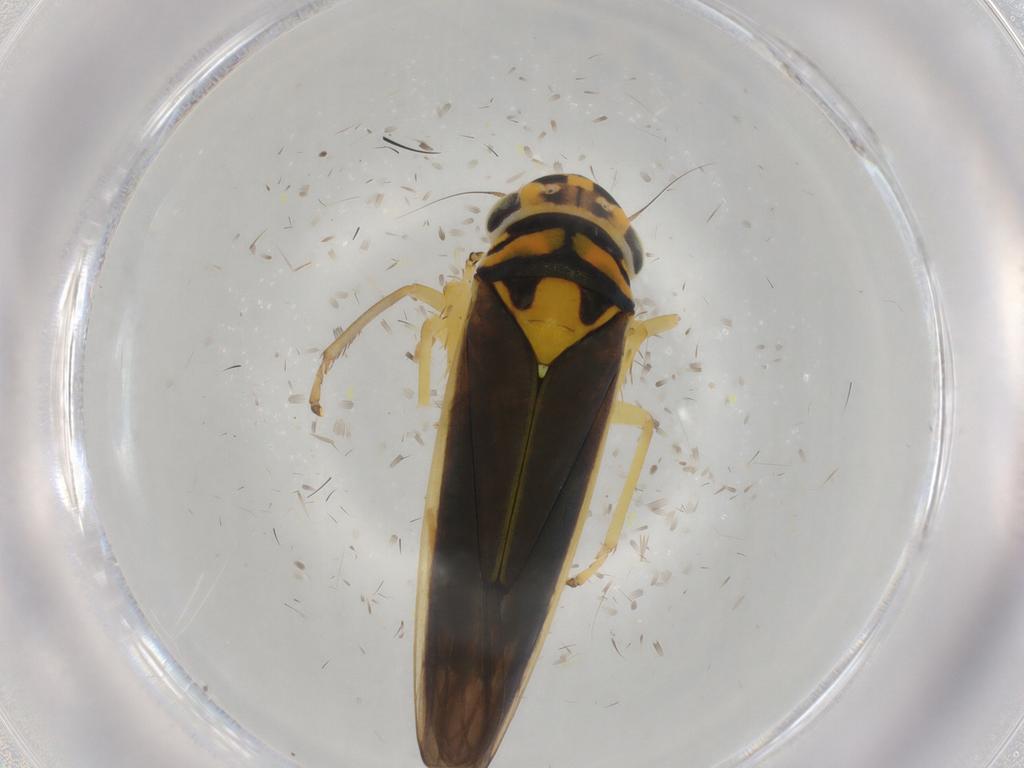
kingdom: Animalia
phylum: Arthropoda
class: Insecta
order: Hemiptera
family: Cicadellidae
